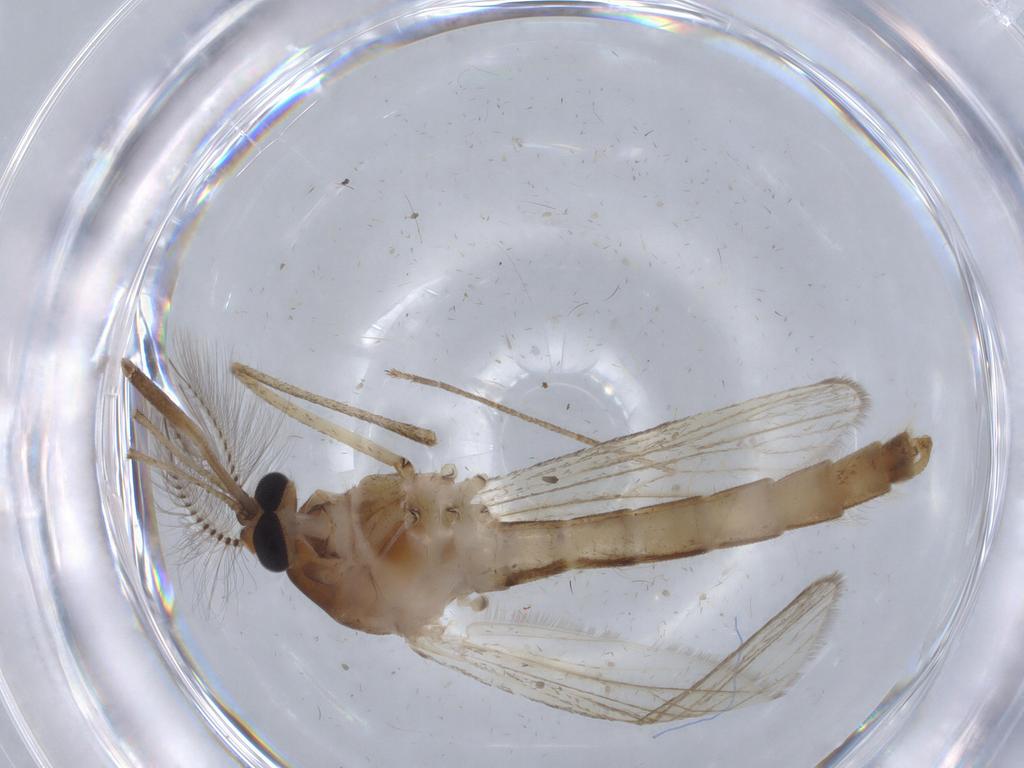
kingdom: Animalia
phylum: Arthropoda
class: Insecta
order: Diptera
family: Ceratopogonidae
